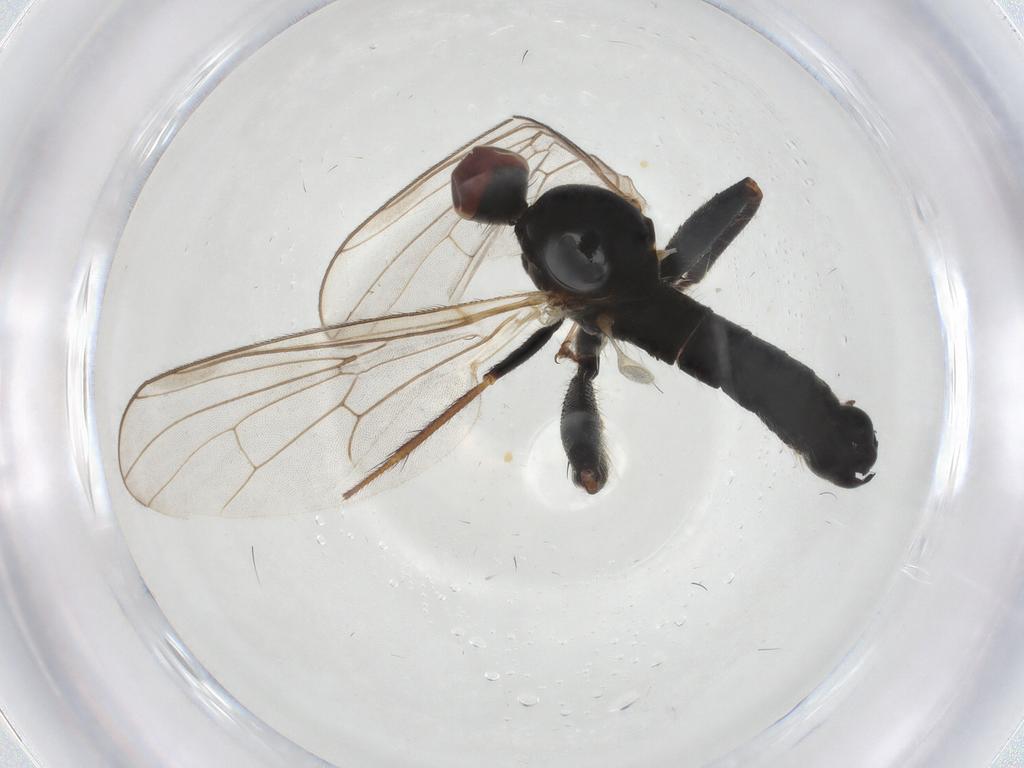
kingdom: Animalia
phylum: Arthropoda
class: Insecta
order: Diptera
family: Hybotidae
